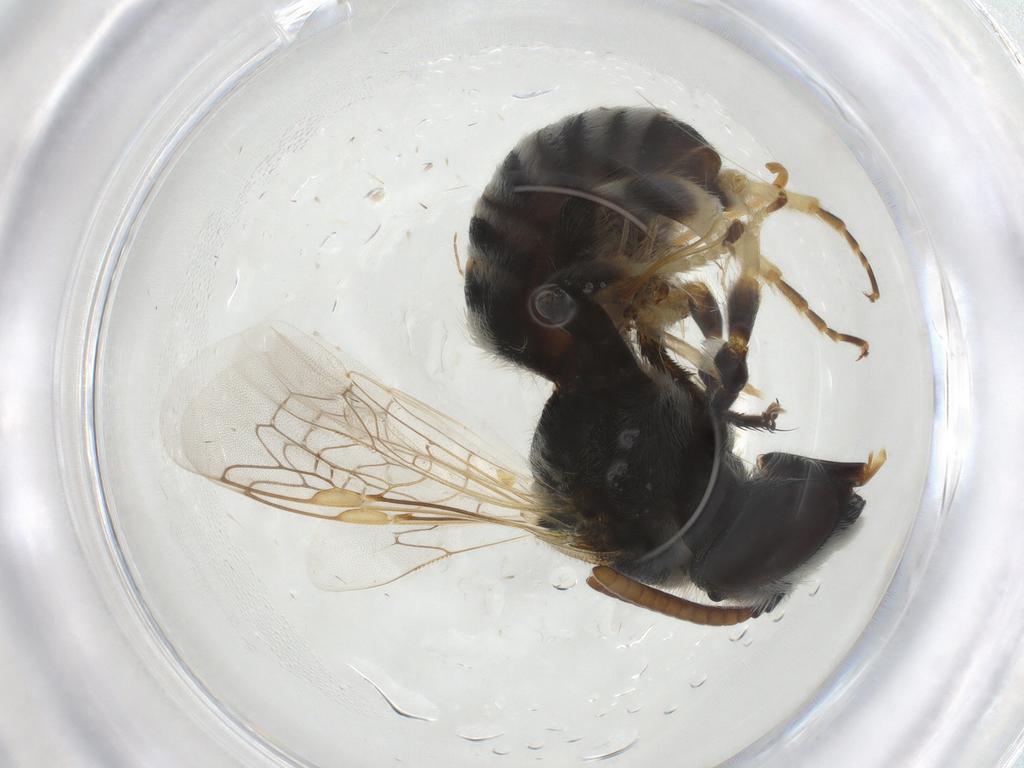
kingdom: Animalia
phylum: Arthropoda
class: Insecta
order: Hymenoptera
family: Halictidae
